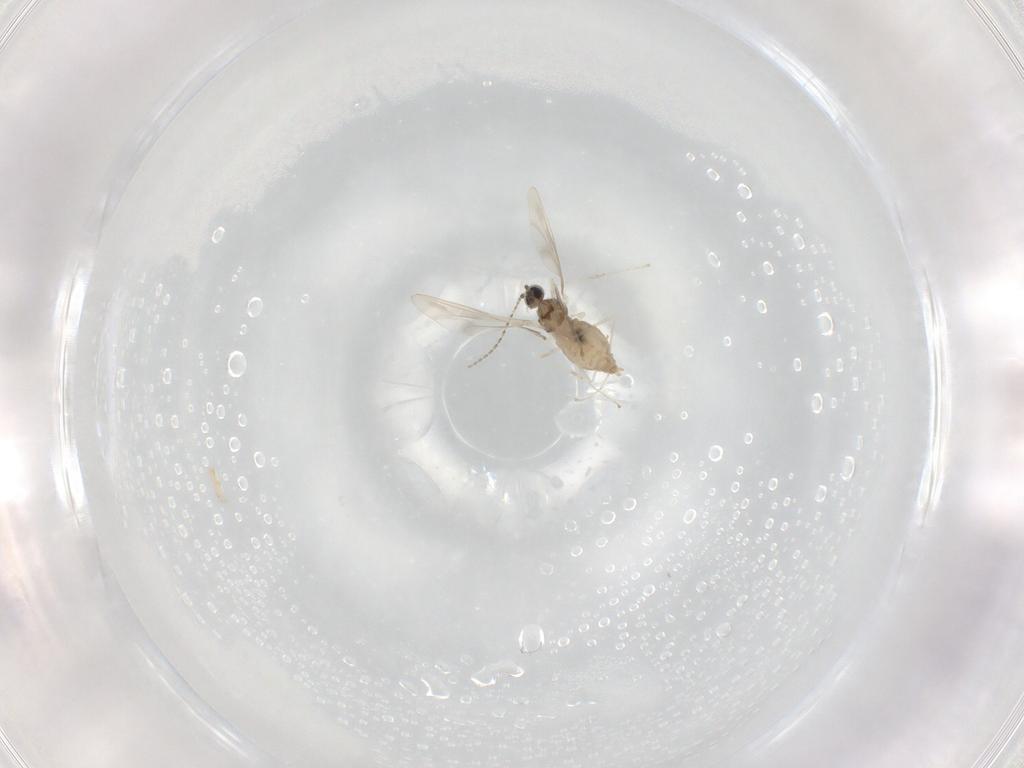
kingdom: Animalia
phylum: Arthropoda
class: Insecta
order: Diptera
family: Cecidomyiidae
